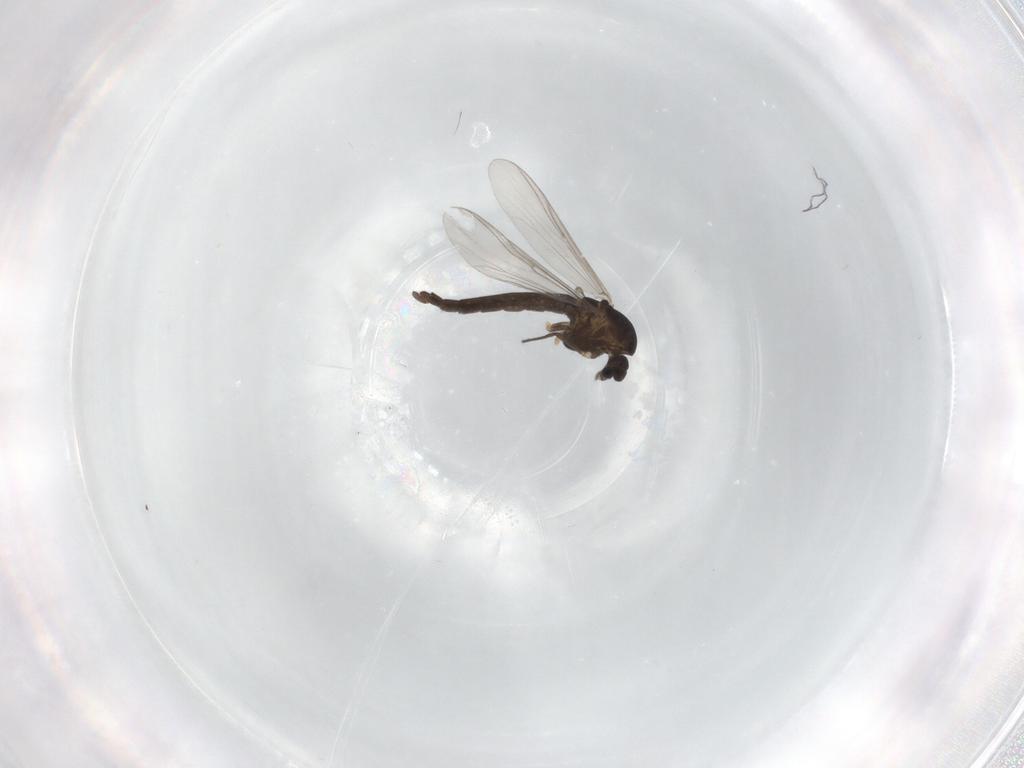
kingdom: Animalia
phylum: Arthropoda
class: Insecta
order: Diptera
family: Chironomidae
